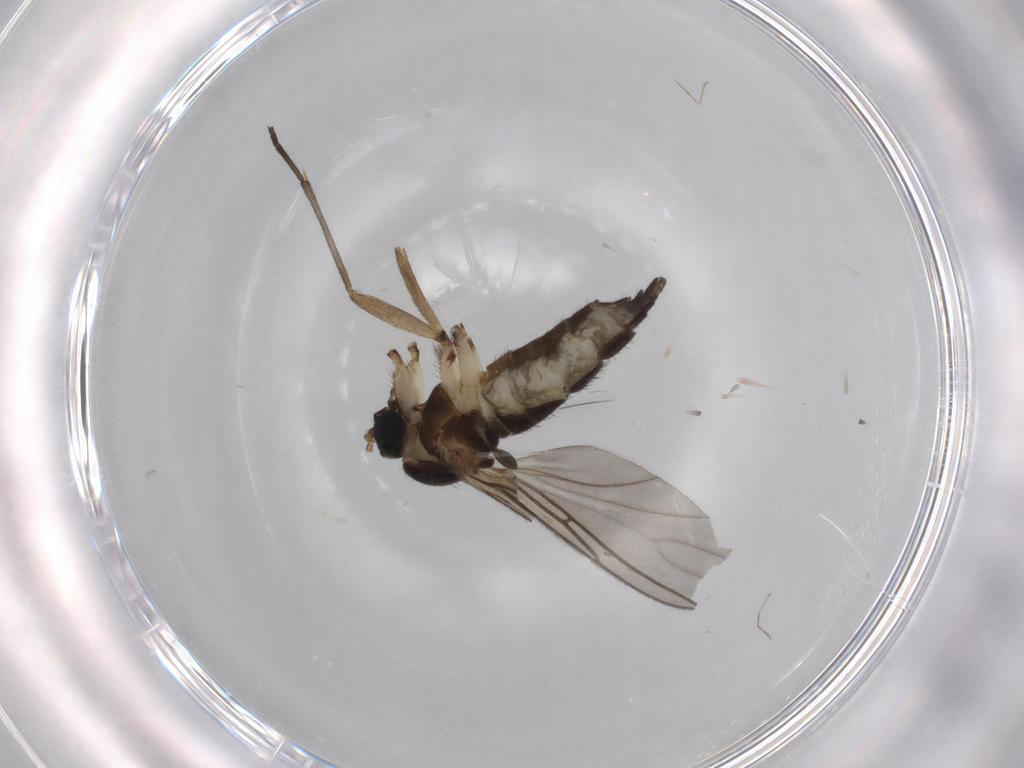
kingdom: Animalia
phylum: Arthropoda
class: Insecta
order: Diptera
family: Sciaridae
